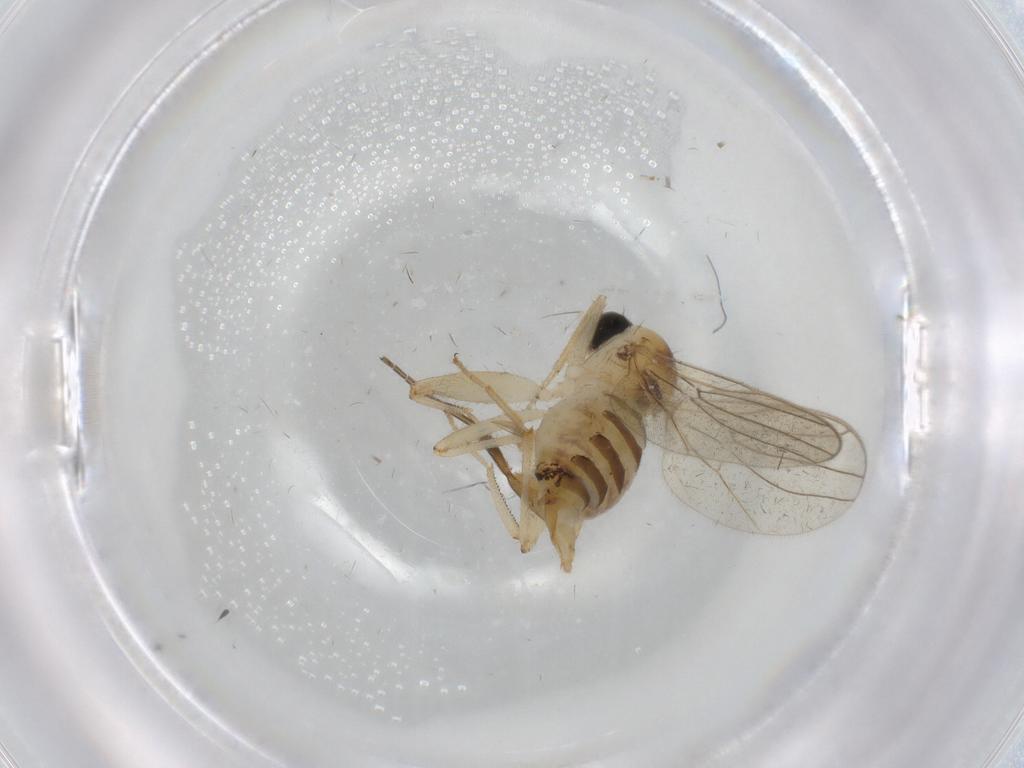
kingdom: Animalia
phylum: Arthropoda
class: Insecta
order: Diptera
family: Hybotidae
